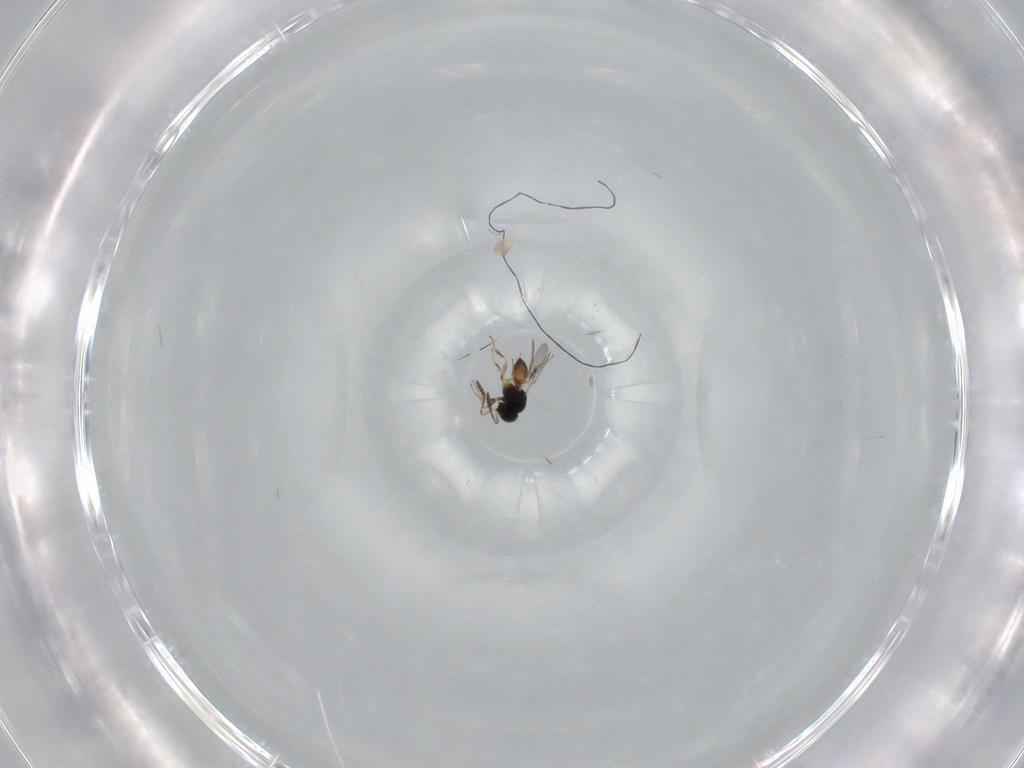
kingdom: Animalia
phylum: Arthropoda
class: Insecta
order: Hymenoptera
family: Scelionidae
